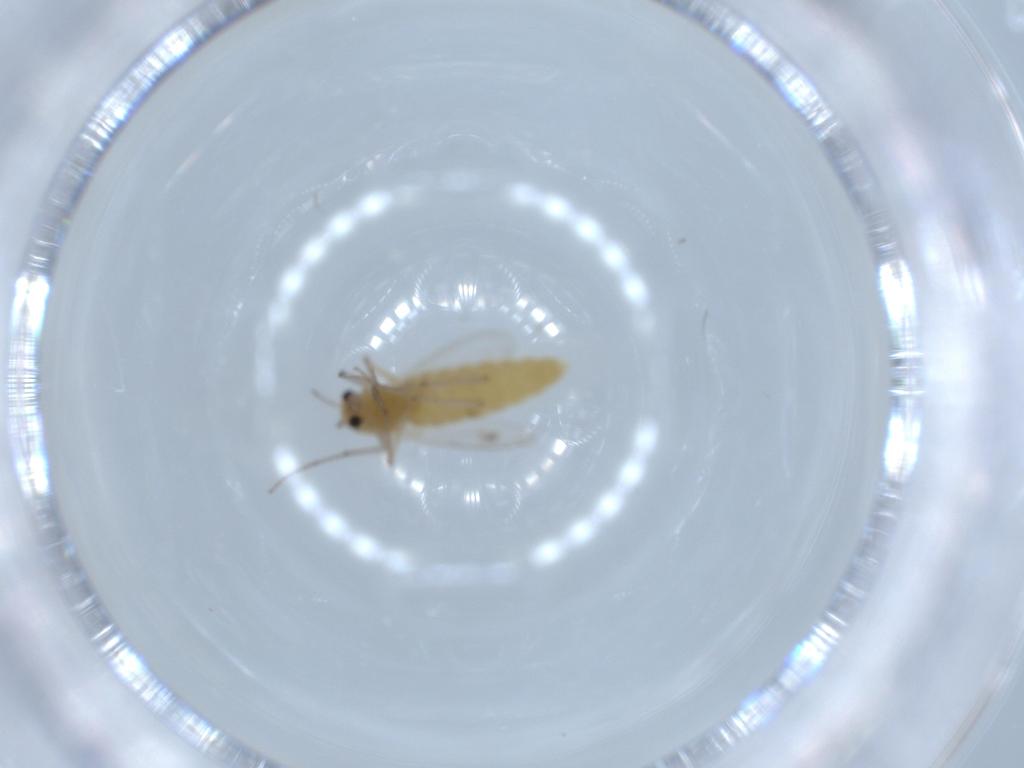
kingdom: Animalia
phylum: Arthropoda
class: Insecta
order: Diptera
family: Chironomidae
